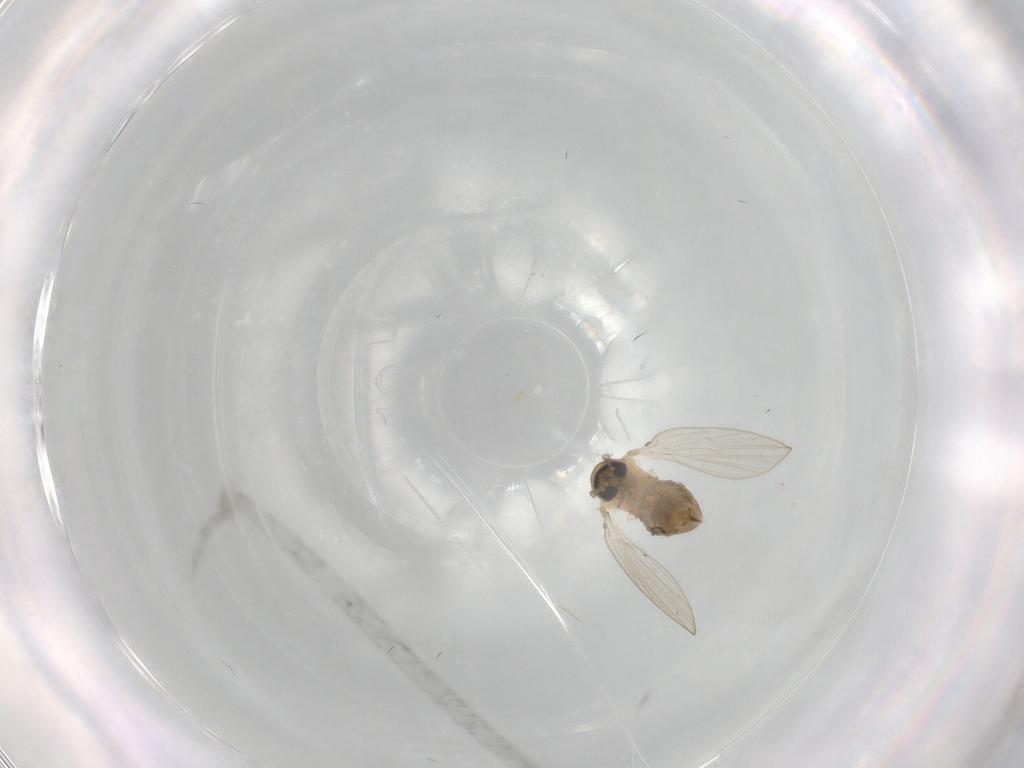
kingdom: Animalia
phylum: Arthropoda
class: Insecta
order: Diptera
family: Psychodidae
